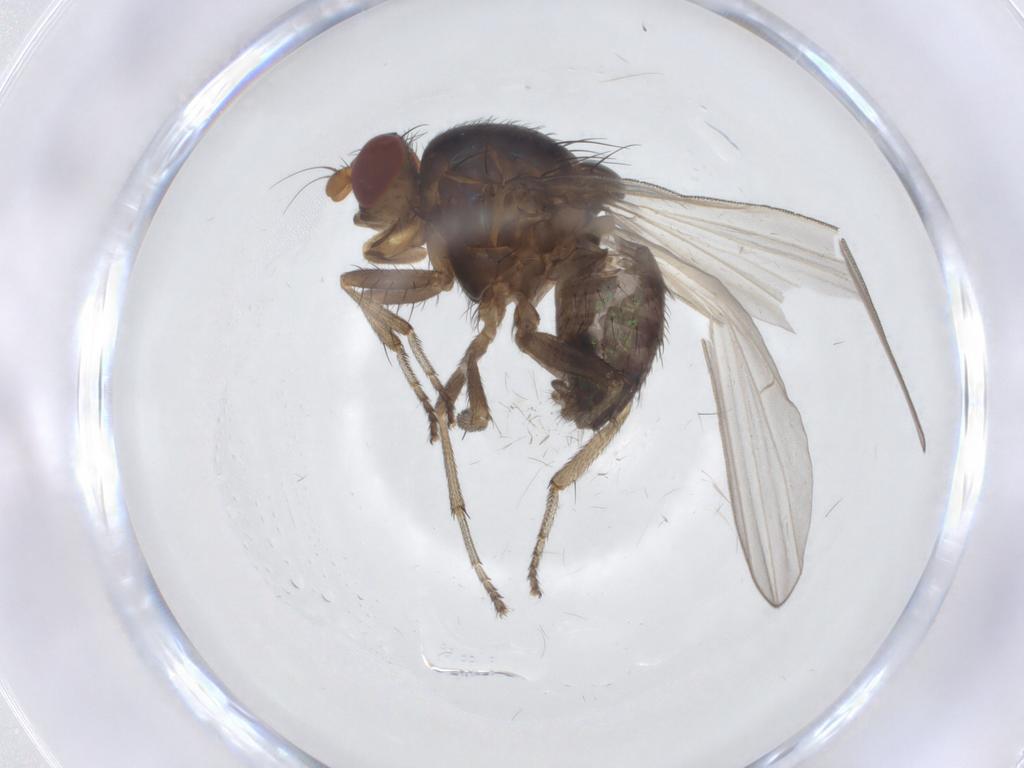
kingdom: Animalia
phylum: Arthropoda
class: Insecta
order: Diptera
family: Lauxaniidae
